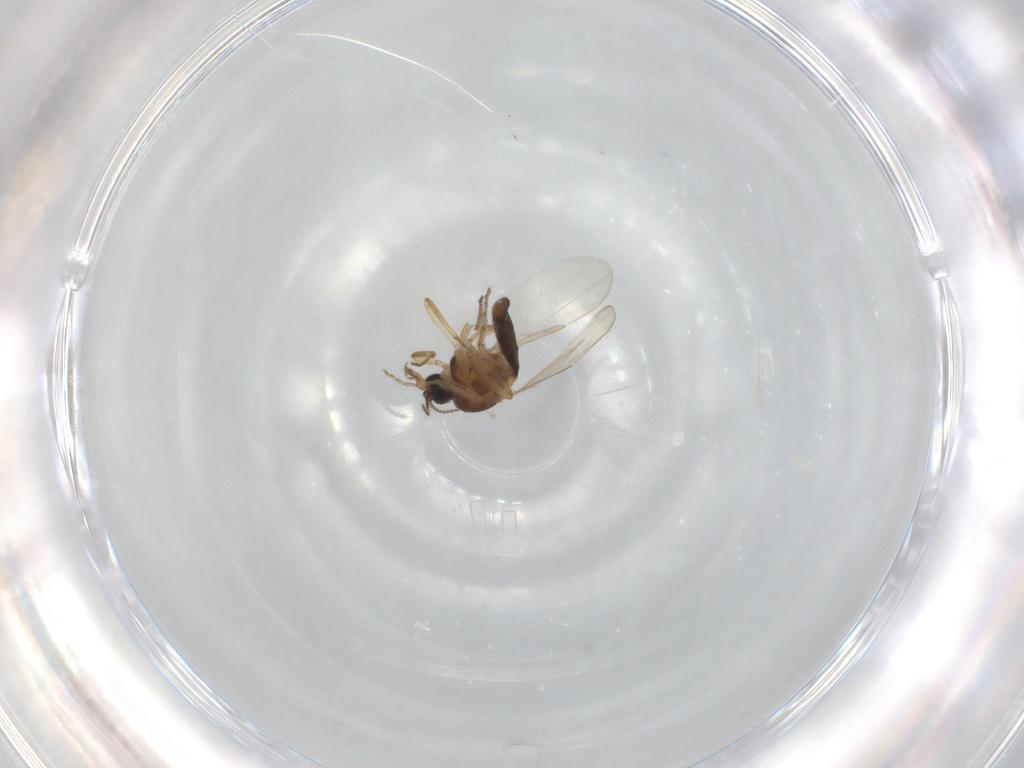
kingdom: Animalia
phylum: Arthropoda
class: Insecta
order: Diptera
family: Ceratopogonidae
